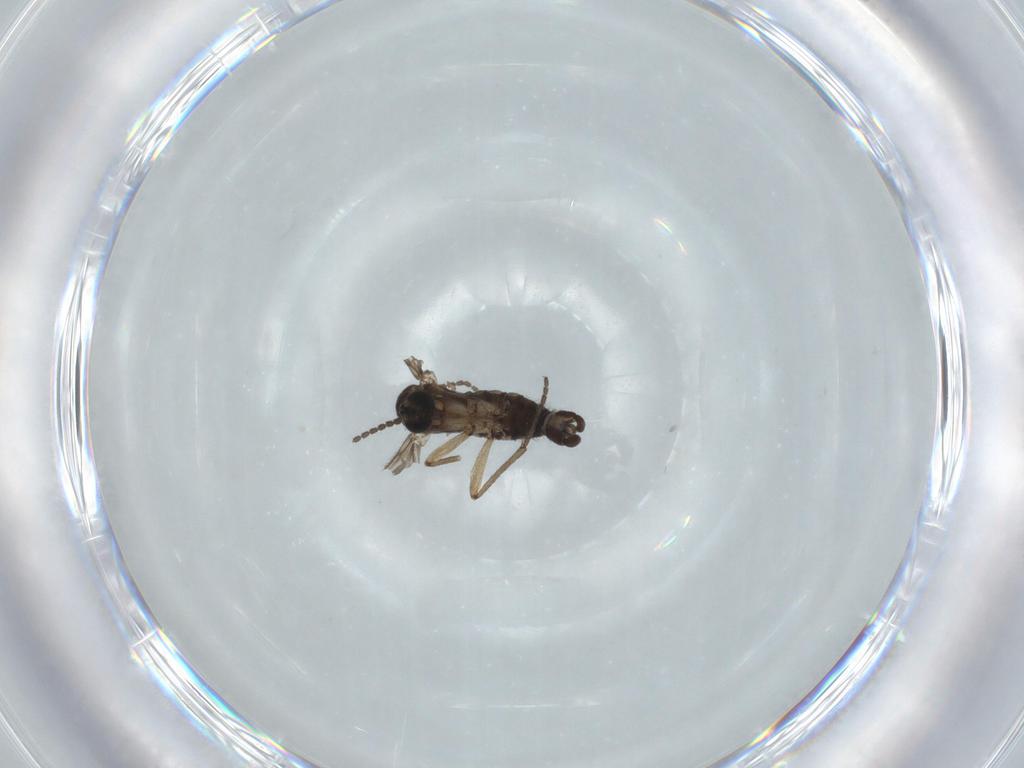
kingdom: Animalia
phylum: Arthropoda
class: Insecta
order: Diptera
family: Sciaridae
